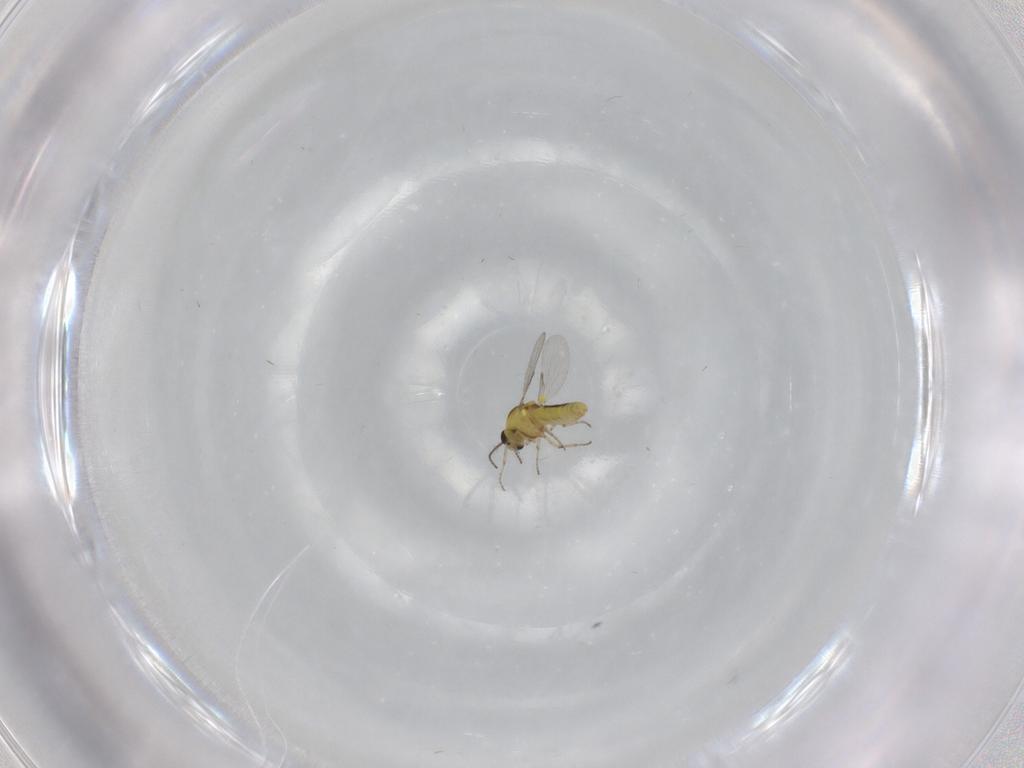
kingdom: Animalia
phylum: Arthropoda
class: Insecta
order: Diptera
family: Ceratopogonidae
